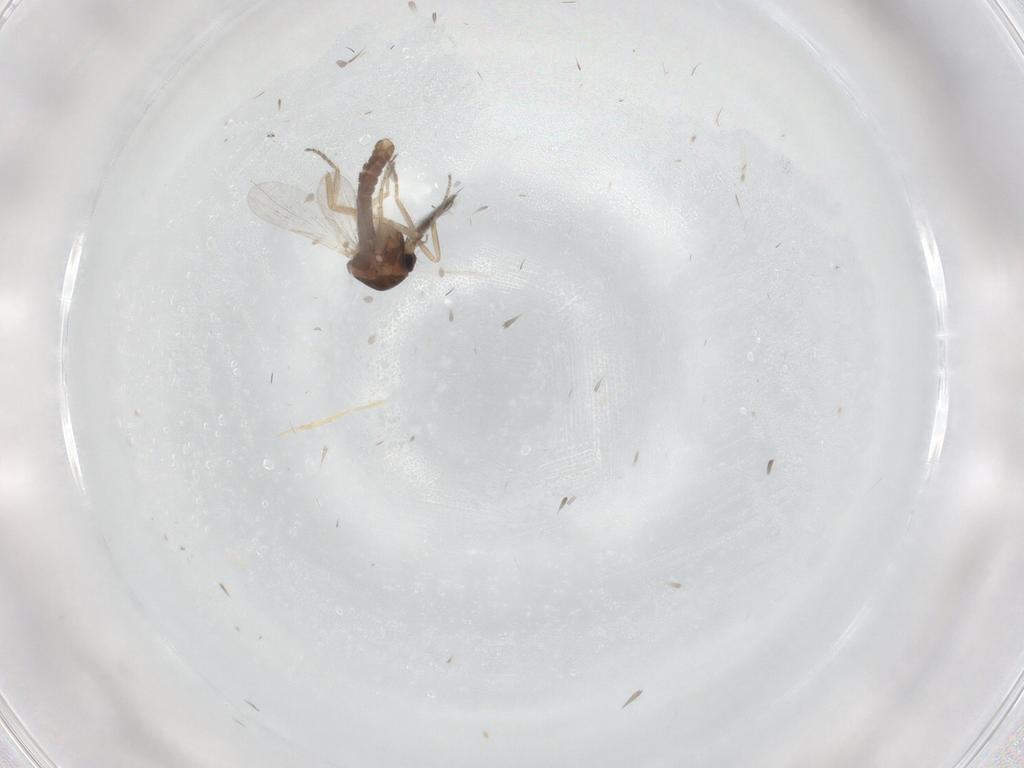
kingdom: Animalia
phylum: Arthropoda
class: Insecta
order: Diptera
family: Ceratopogonidae
